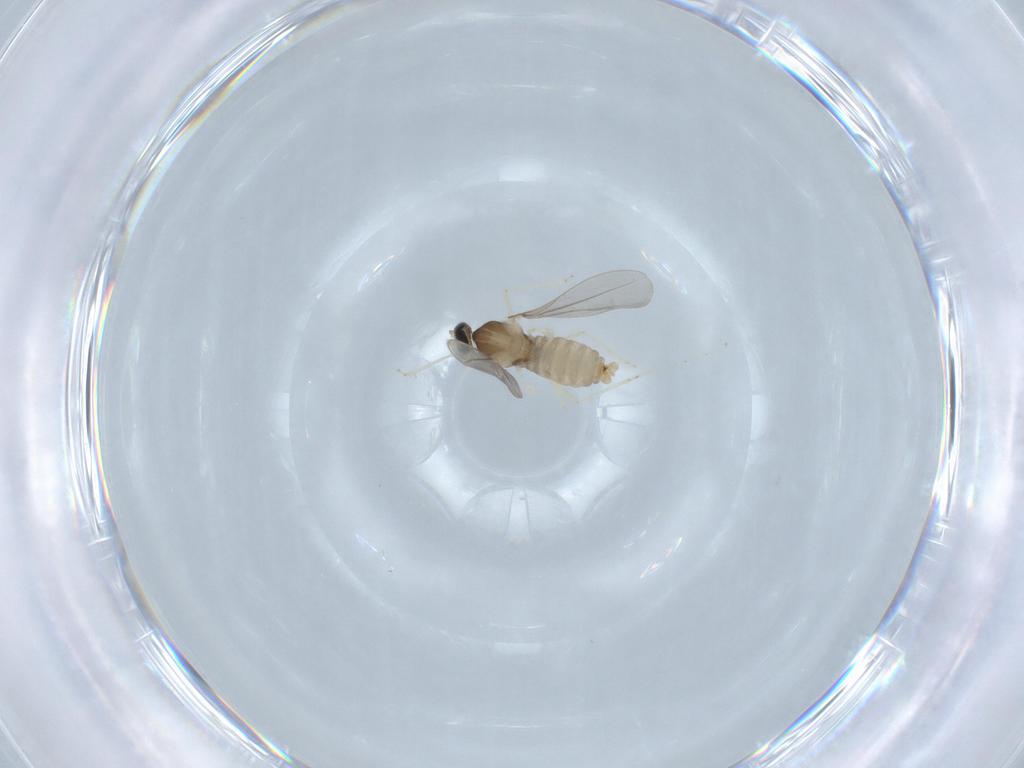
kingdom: Animalia
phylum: Arthropoda
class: Insecta
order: Diptera
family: Cecidomyiidae
